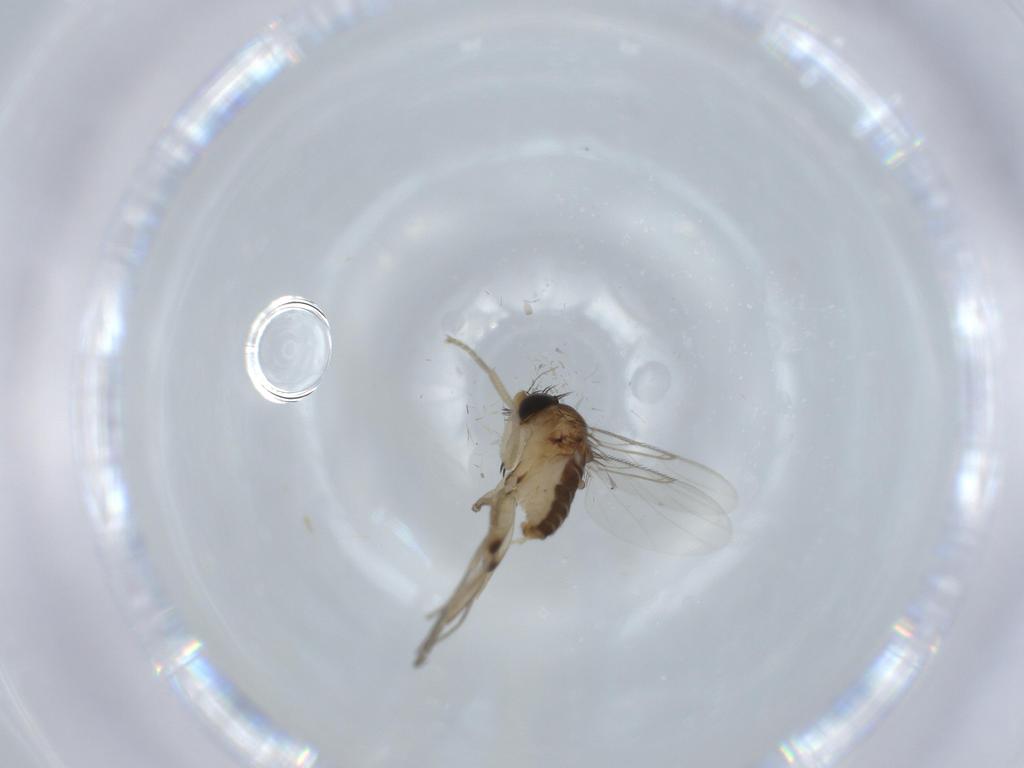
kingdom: Animalia
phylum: Arthropoda
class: Insecta
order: Diptera
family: Phoridae
